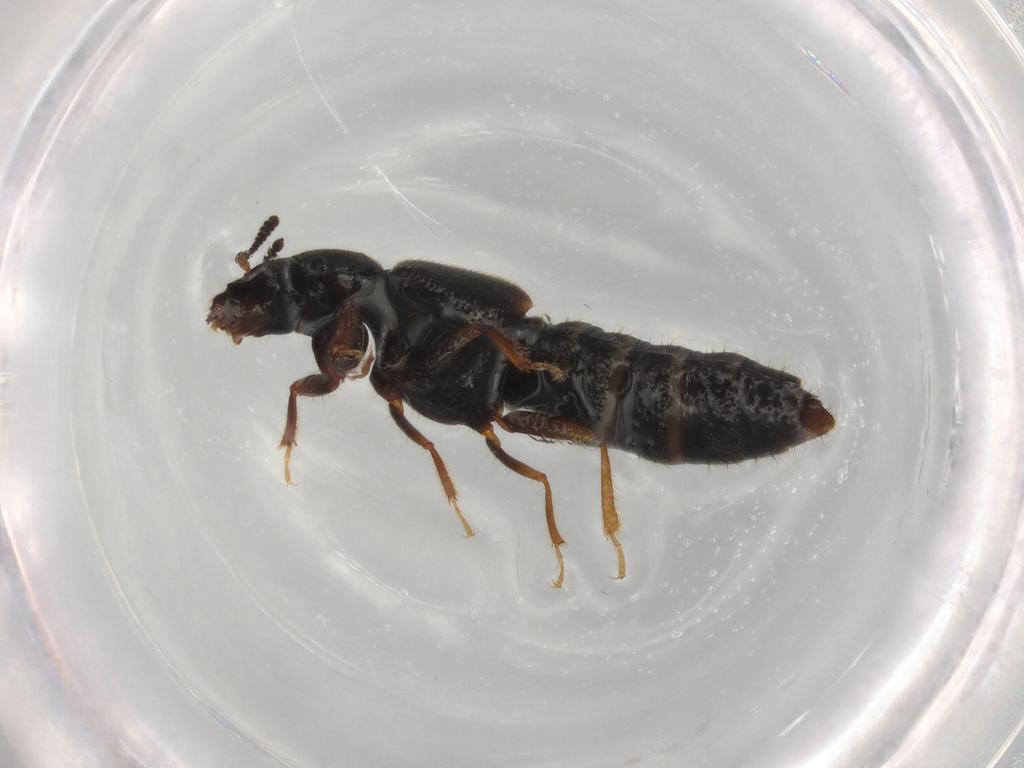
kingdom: Animalia
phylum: Arthropoda
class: Insecta
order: Coleoptera
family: Staphylinidae
